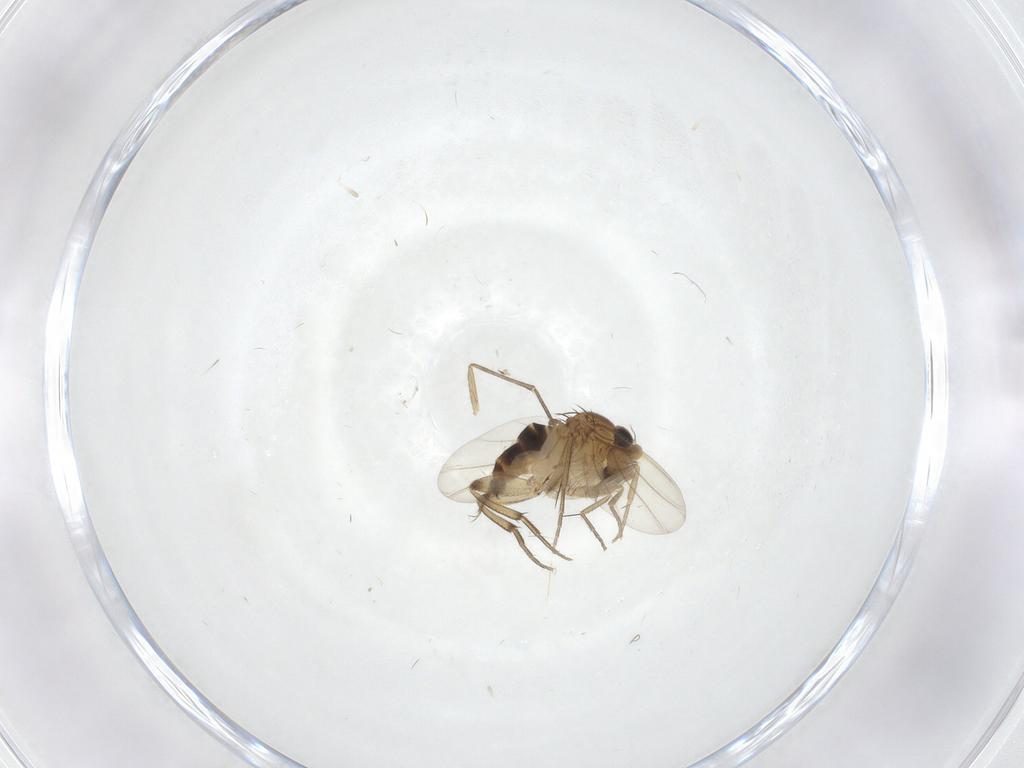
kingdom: Animalia
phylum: Arthropoda
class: Insecta
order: Diptera
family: Limoniidae
